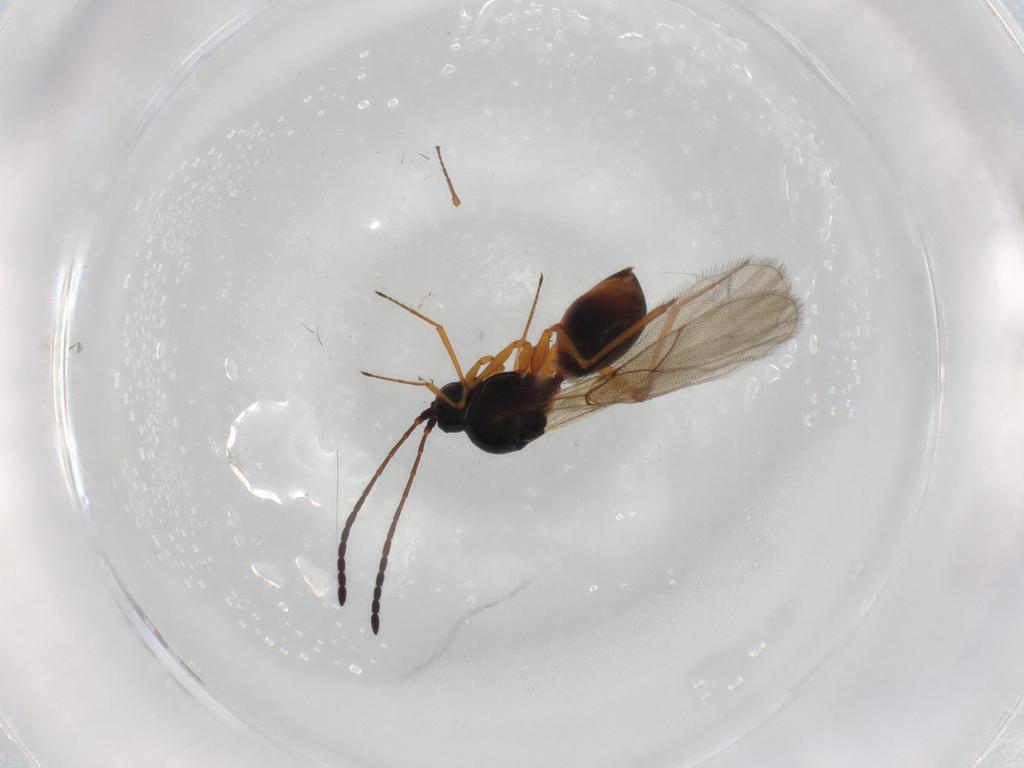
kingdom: Animalia
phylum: Arthropoda
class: Insecta
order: Hymenoptera
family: Figitidae
